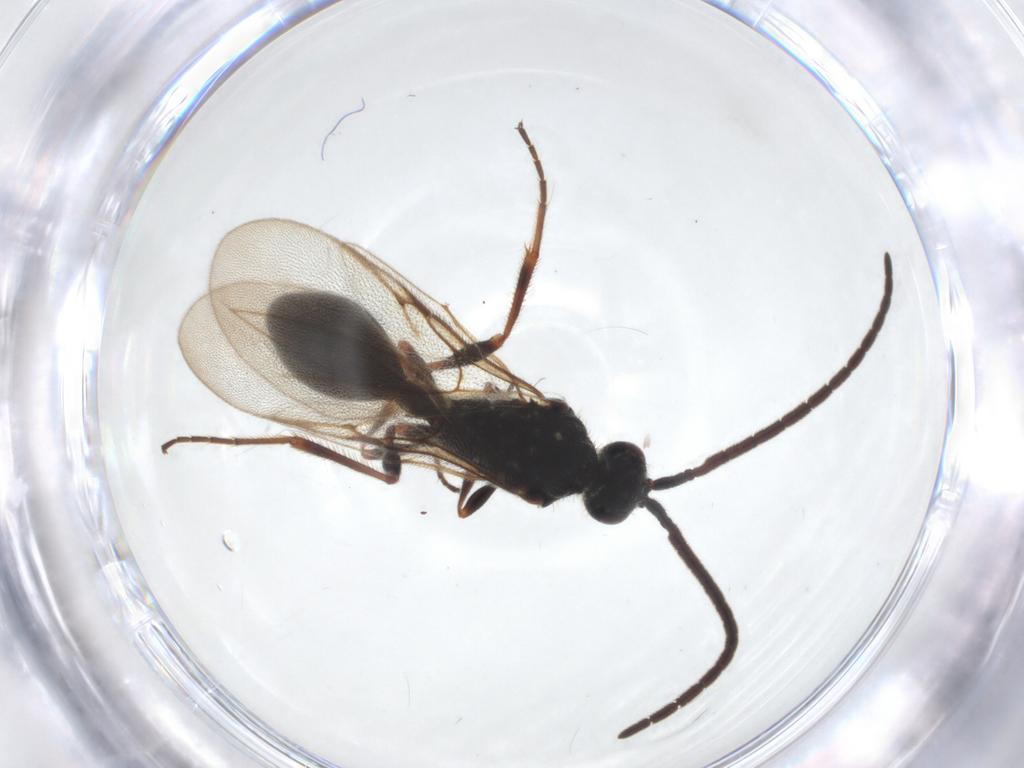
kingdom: Animalia
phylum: Arthropoda
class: Insecta
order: Hymenoptera
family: Diapriidae
